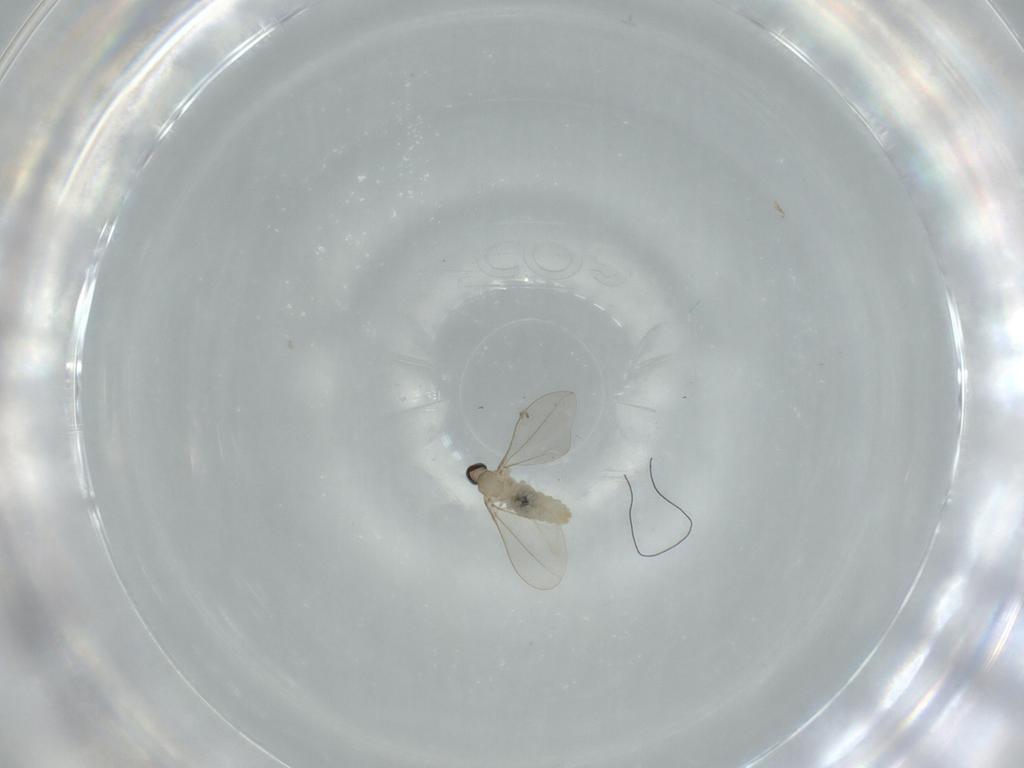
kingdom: Animalia
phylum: Arthropoda
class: Insecta
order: Diptera
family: Cecidomyiidae
